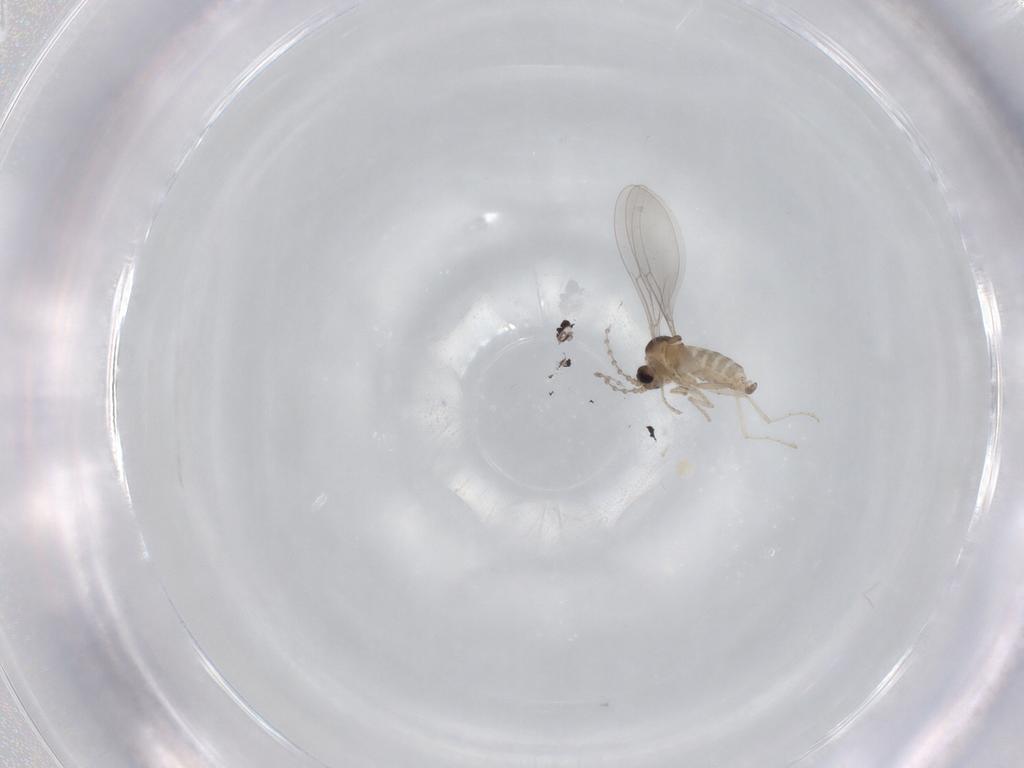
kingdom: Animalia
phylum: Arthropoda
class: Insecta
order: Diptera
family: Cecidomyiidae
